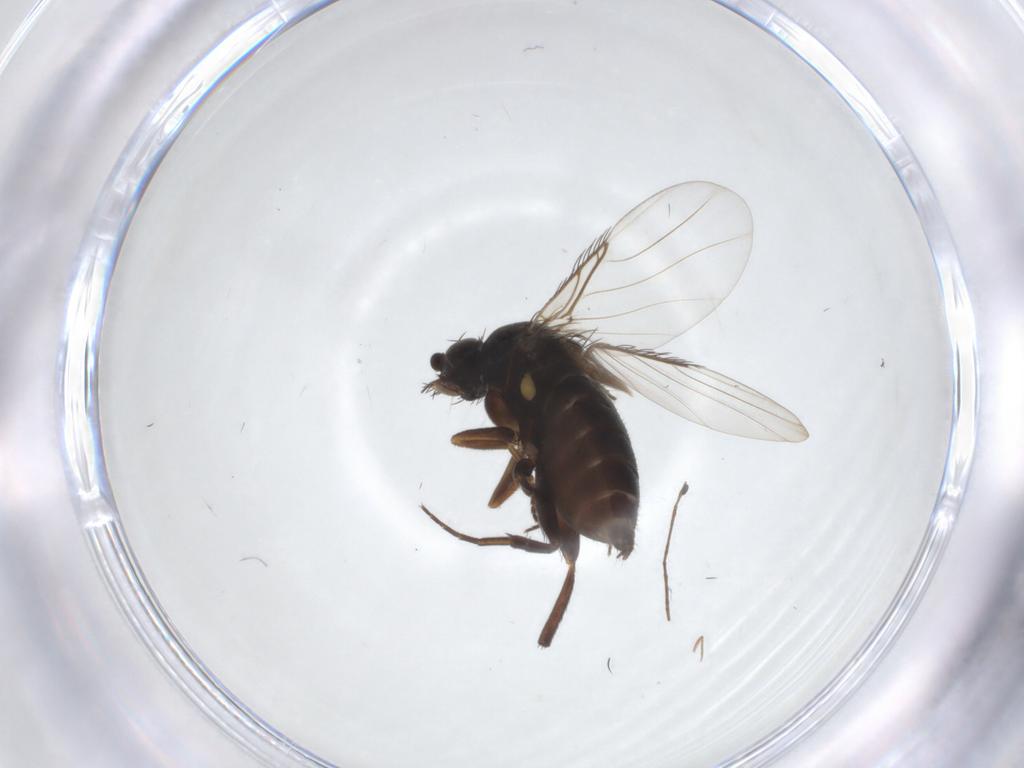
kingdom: Animalia
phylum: Arthropoda
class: Insecta
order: Diptera
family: Phoridae
